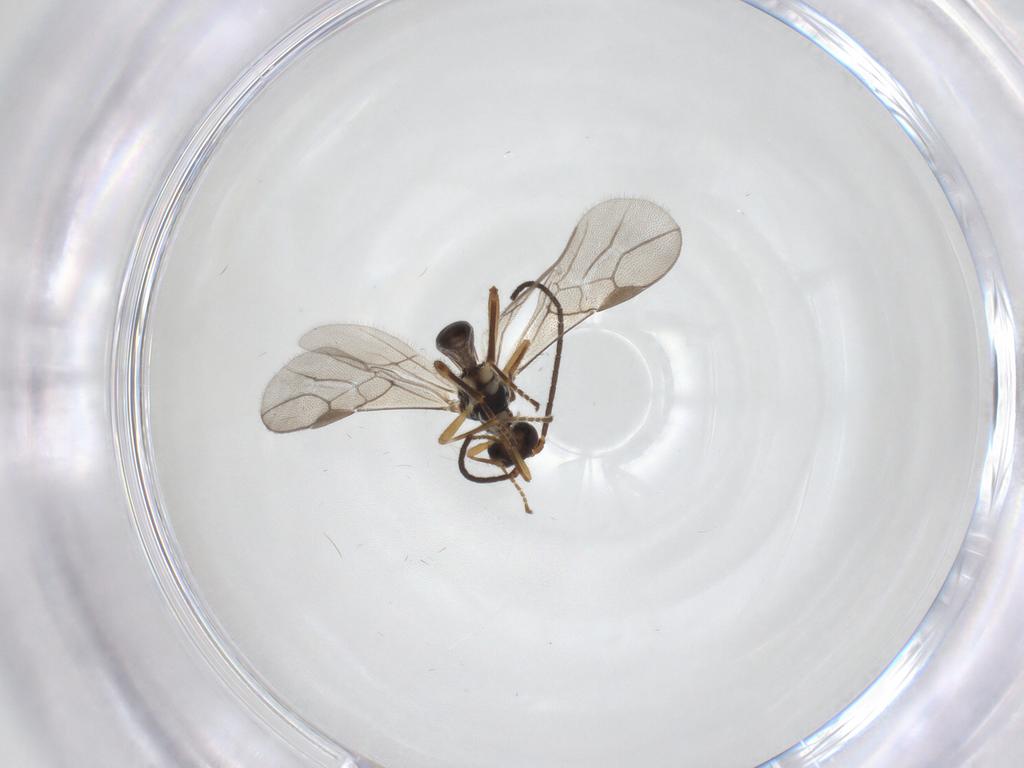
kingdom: Animalia
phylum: Arthropoda
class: Insecta
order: Hymenoptera
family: Braconidae
